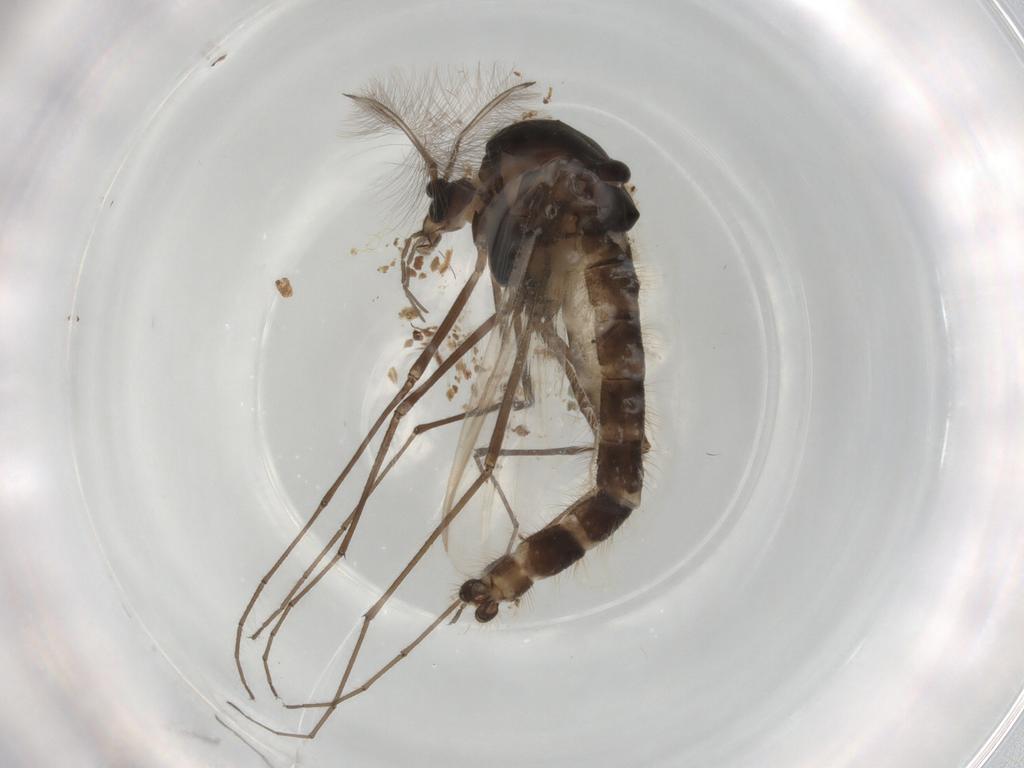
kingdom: Animalia
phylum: Arthropoda
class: Insecta
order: Diptera
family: Chironomidae
